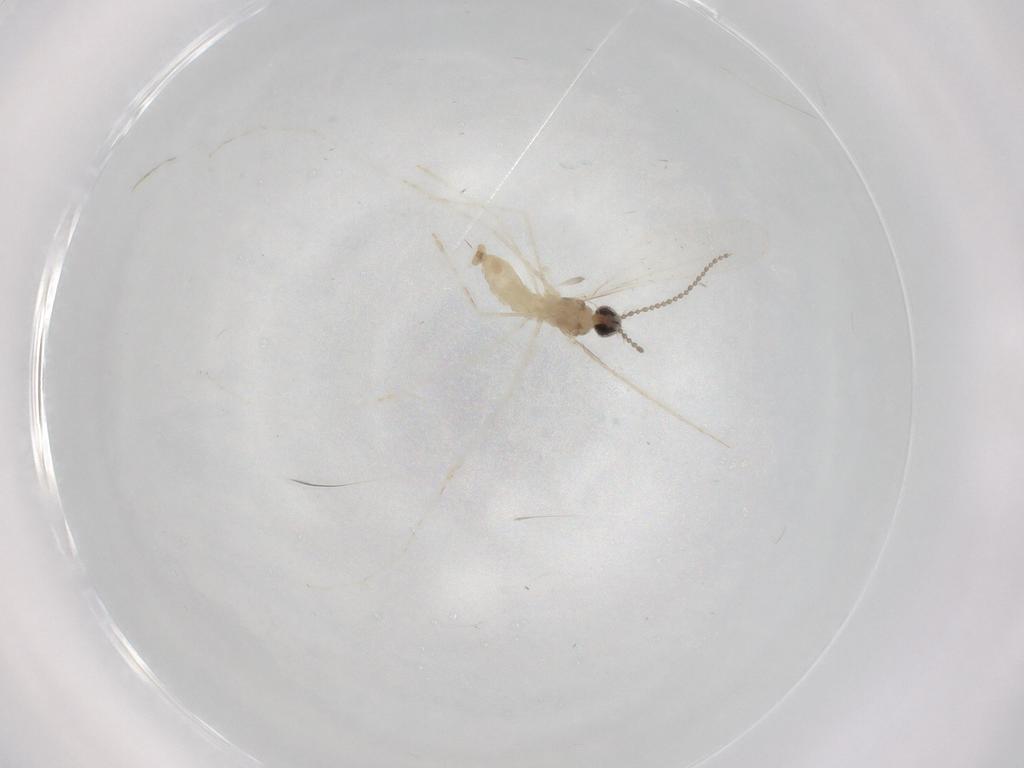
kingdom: Animalia
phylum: Arthropoda
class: Insecta
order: Diptera
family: Cecidomyiidae
